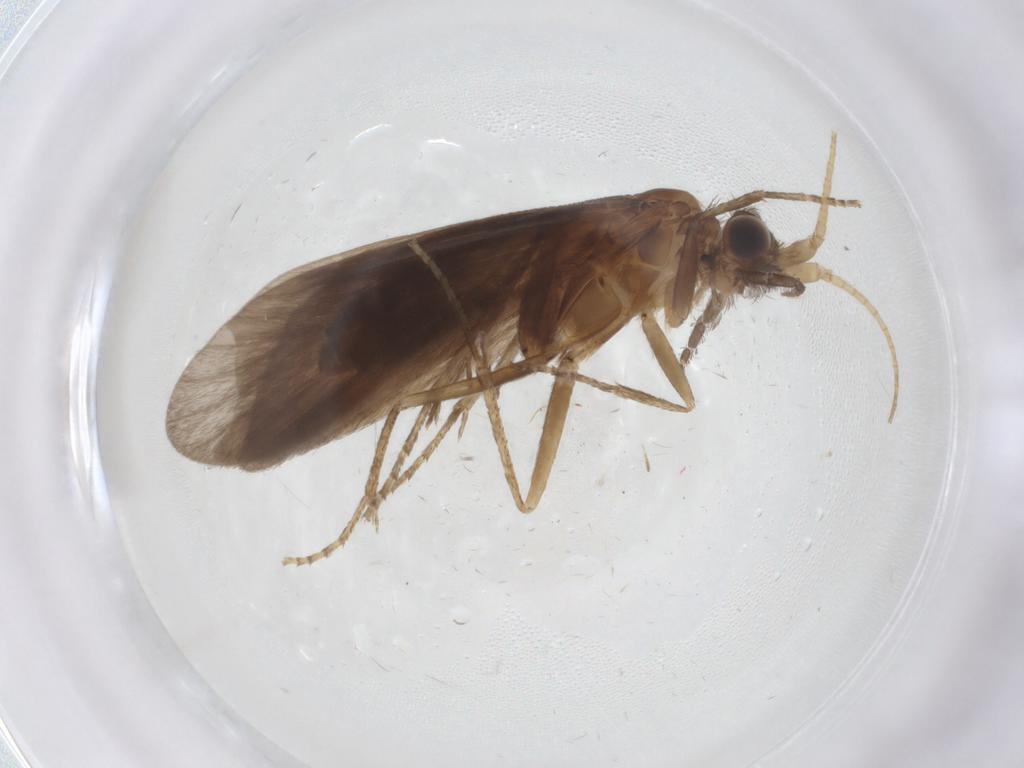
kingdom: Animalia
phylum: Arthropoda
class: Insecta
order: Trichoptera
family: Helicopsychidae
